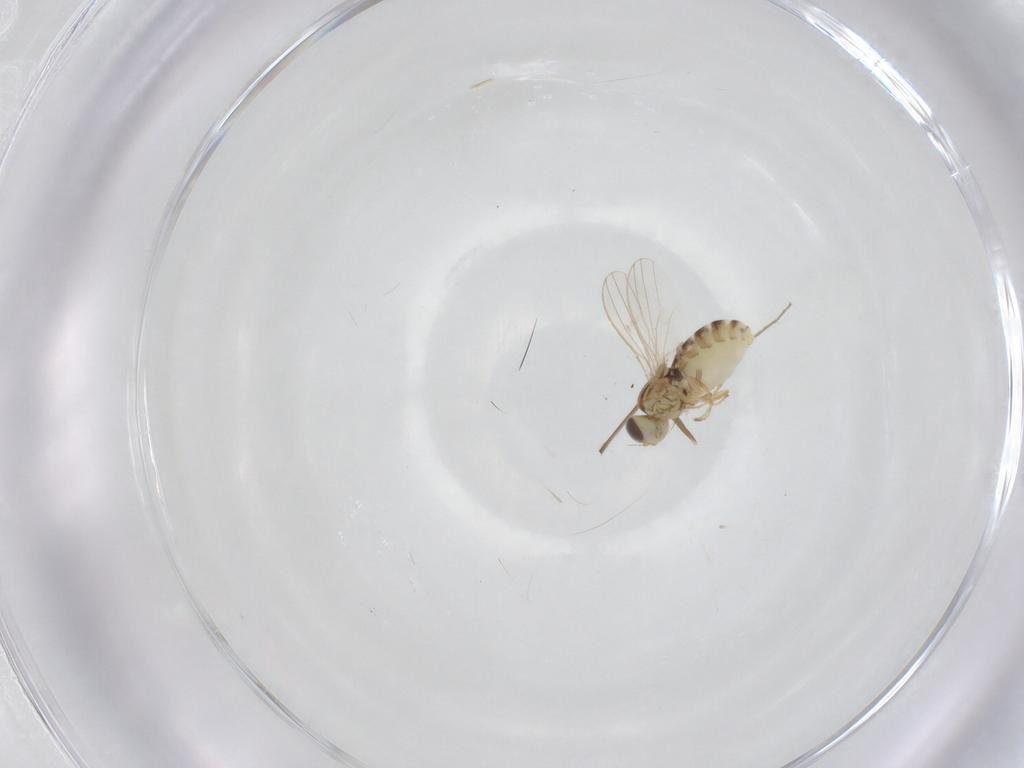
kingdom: Animalia
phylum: Arthropoda
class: Insecta
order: Diptera
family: Chyromyidae
